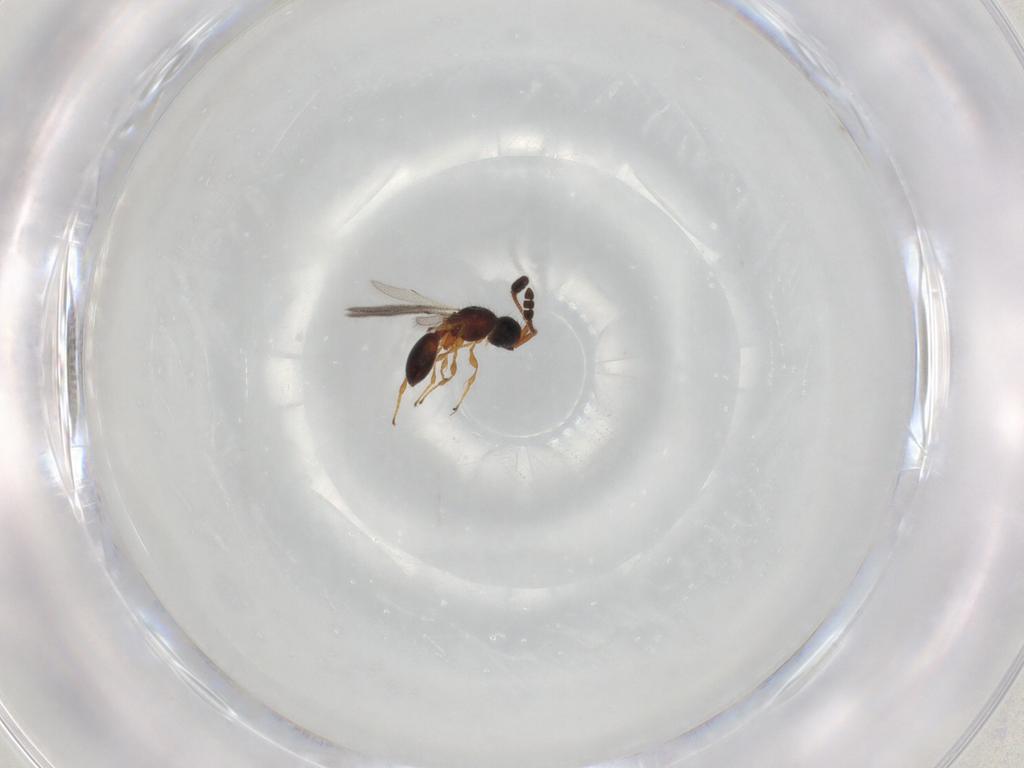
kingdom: Animalia
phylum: Arthropoda
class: Insecta
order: Hymenoptera
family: Diapriidae
